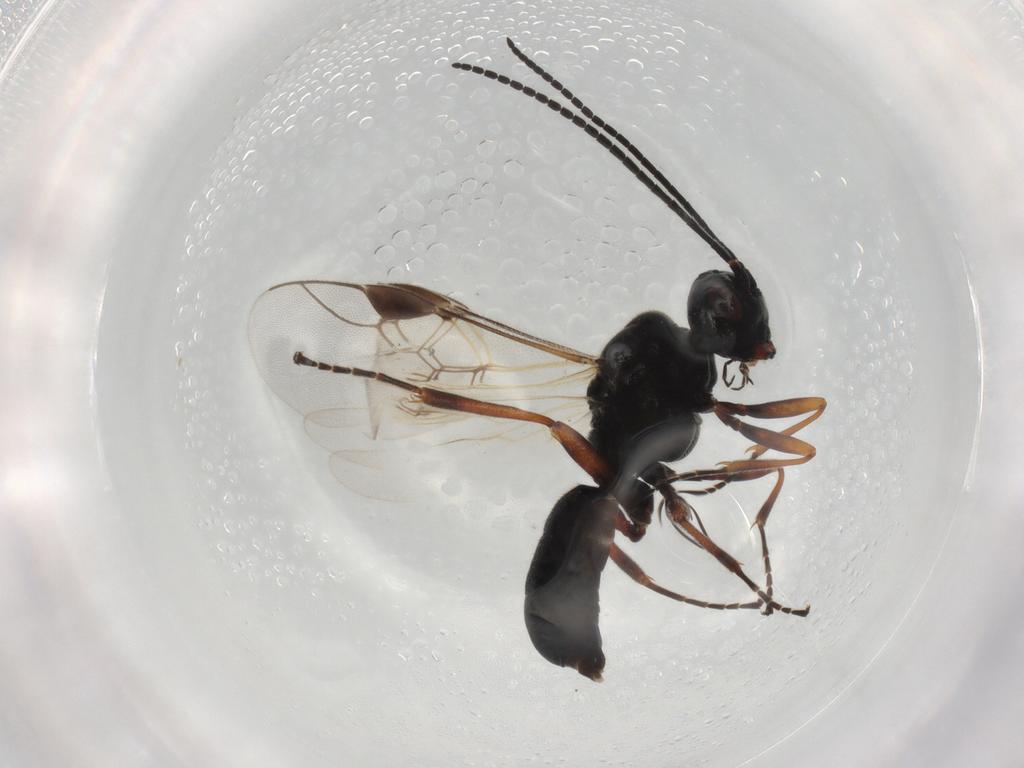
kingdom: Animalia
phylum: Arthropoda
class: Insecta
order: Hymenoptera
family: Braconidae
